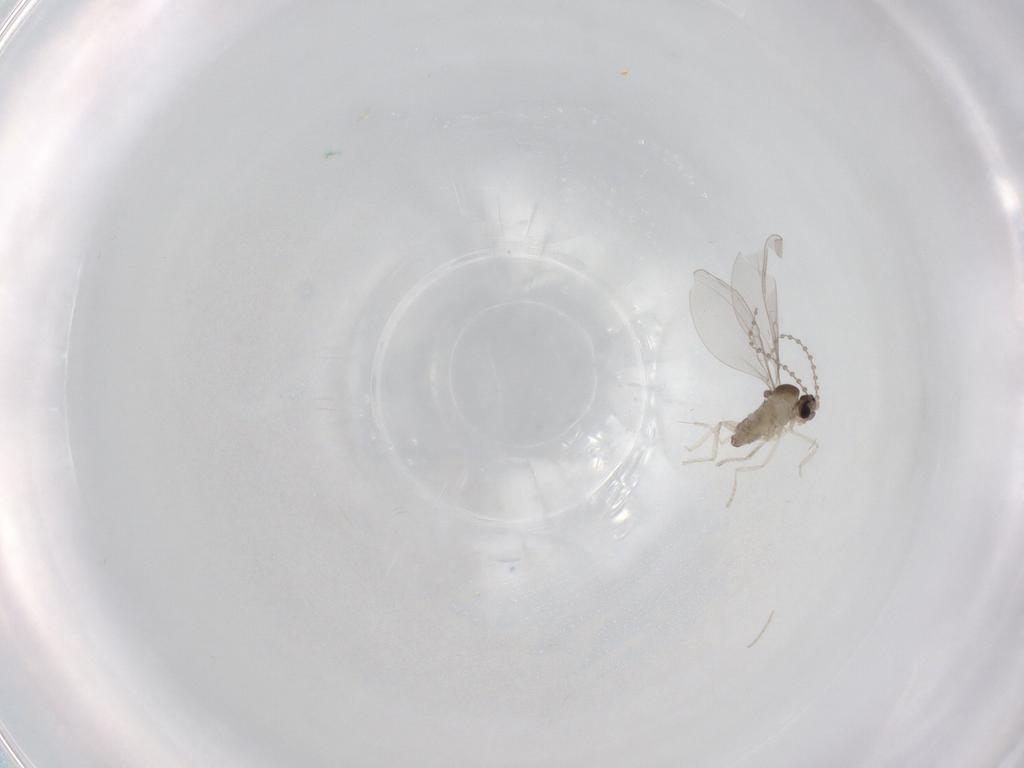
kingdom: Animalia
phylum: Arthropoda
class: Insecta
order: Diptera
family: Cecidomyiidae
